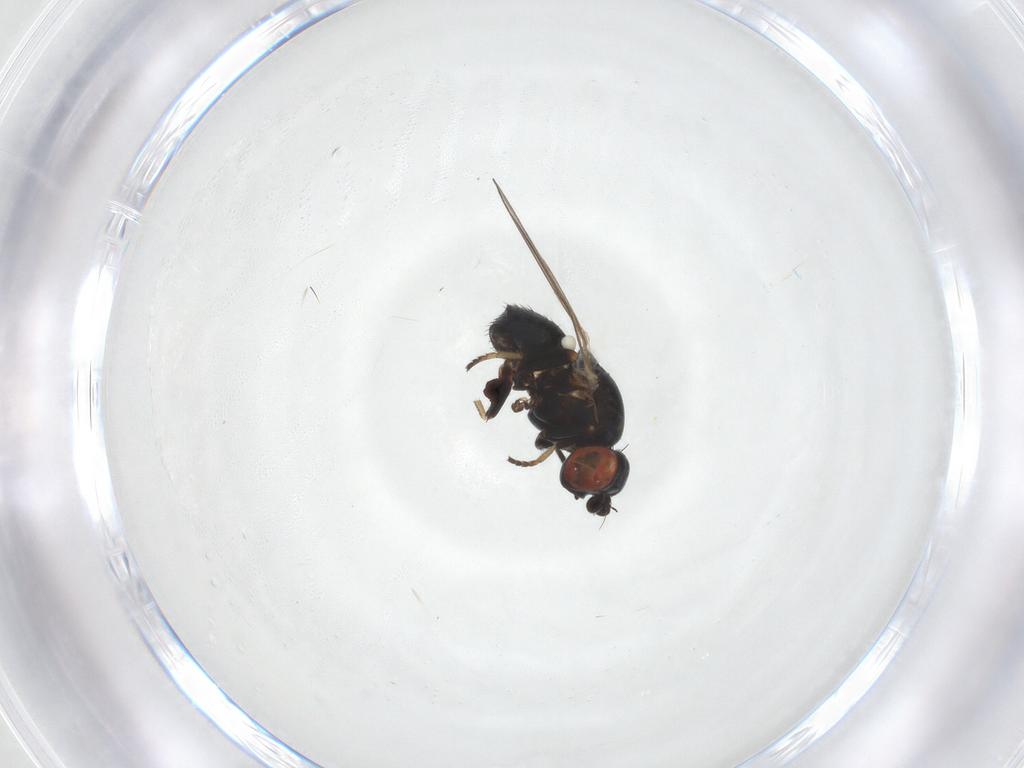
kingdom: Animalia
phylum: Arthropoda
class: Insecta
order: Diptera
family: Chamaemyiidae
